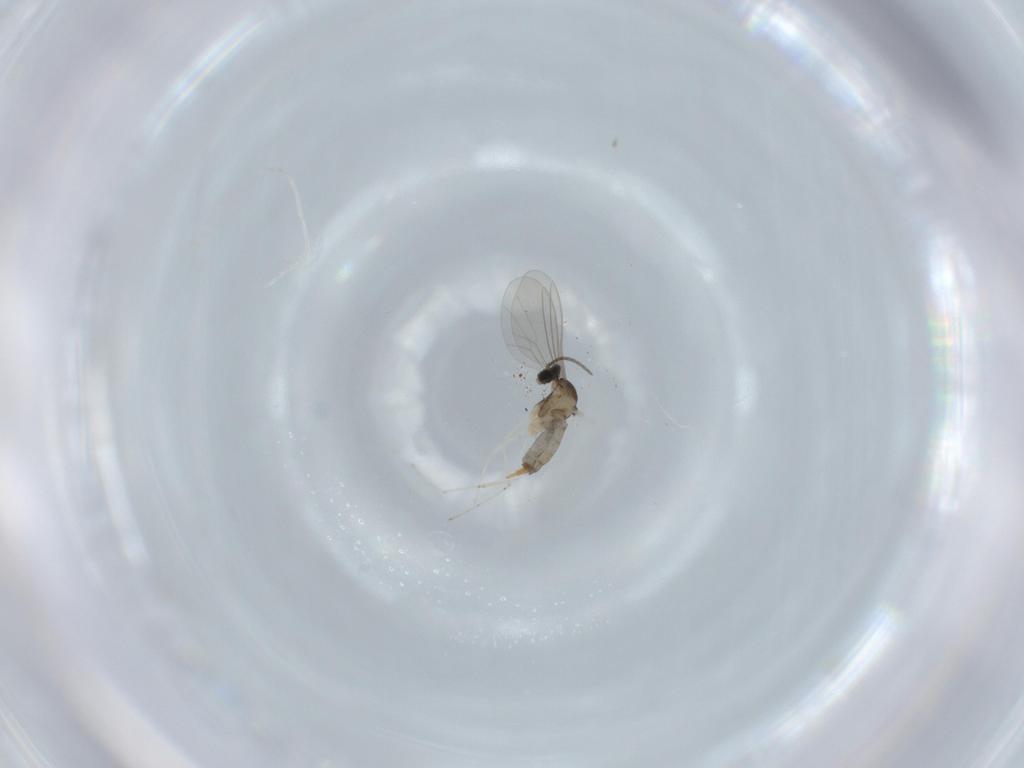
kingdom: Animalia
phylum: Arthropoda
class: Insecta
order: Diptera
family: Cecidomyiidae
